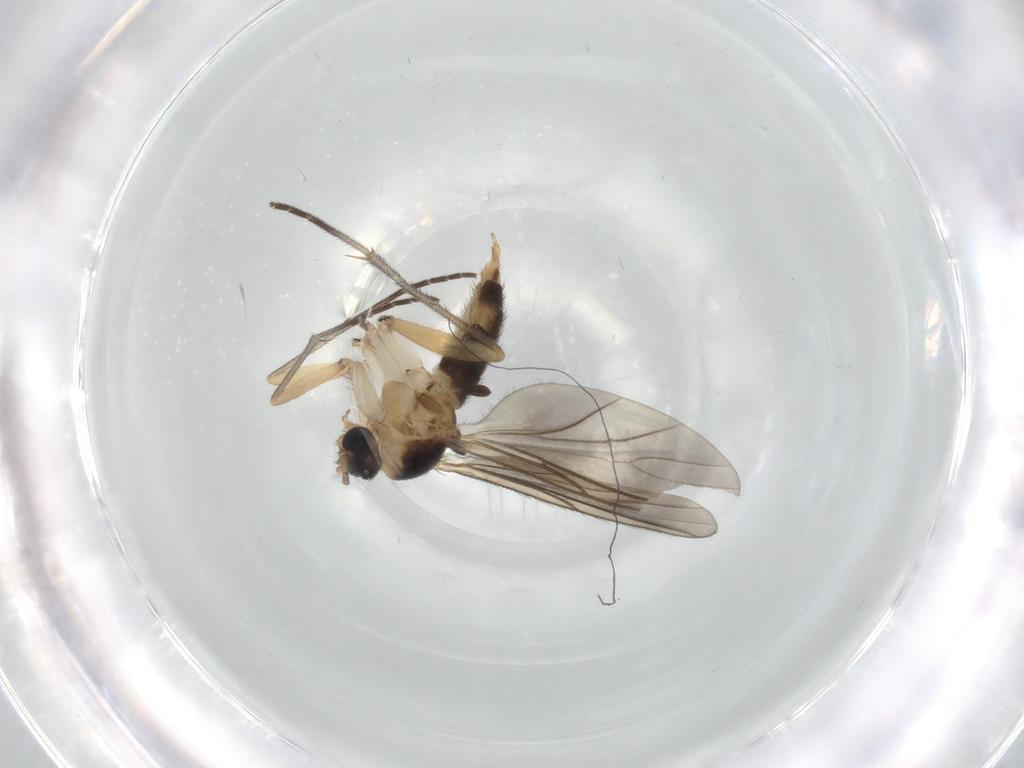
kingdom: Animalia
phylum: Arthropoda
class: Insecta
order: Diptera
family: Sciaridae
